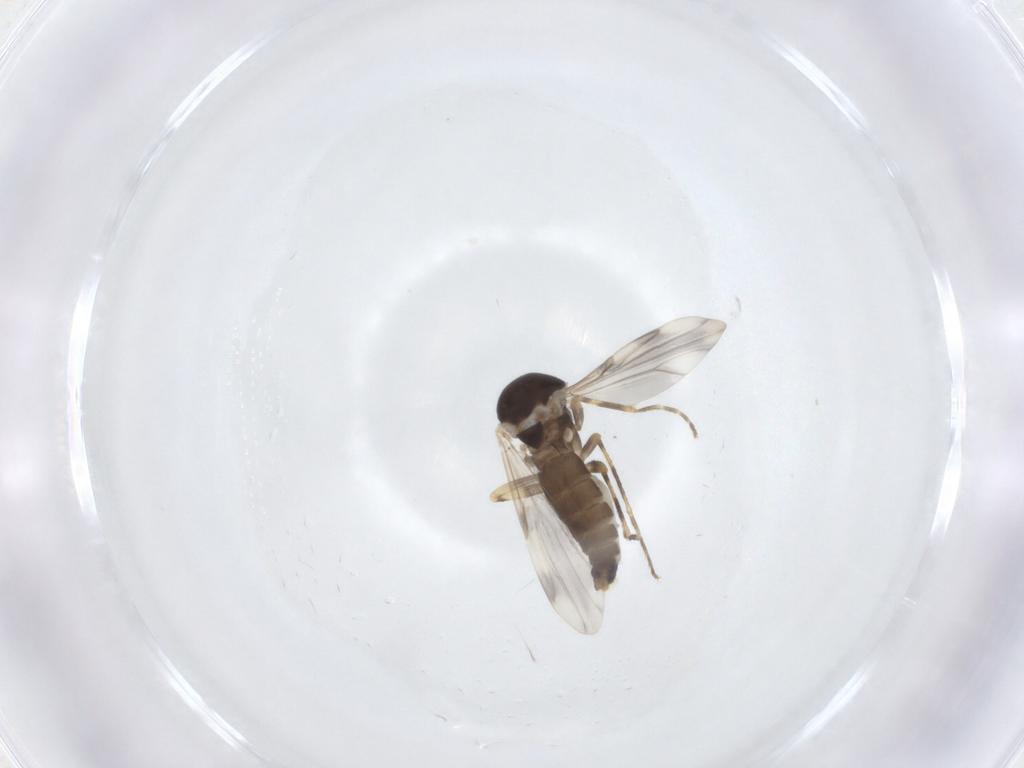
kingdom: Animalia
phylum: Arthropoda
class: Insecta
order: Diptera
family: Ceratopogonidae
